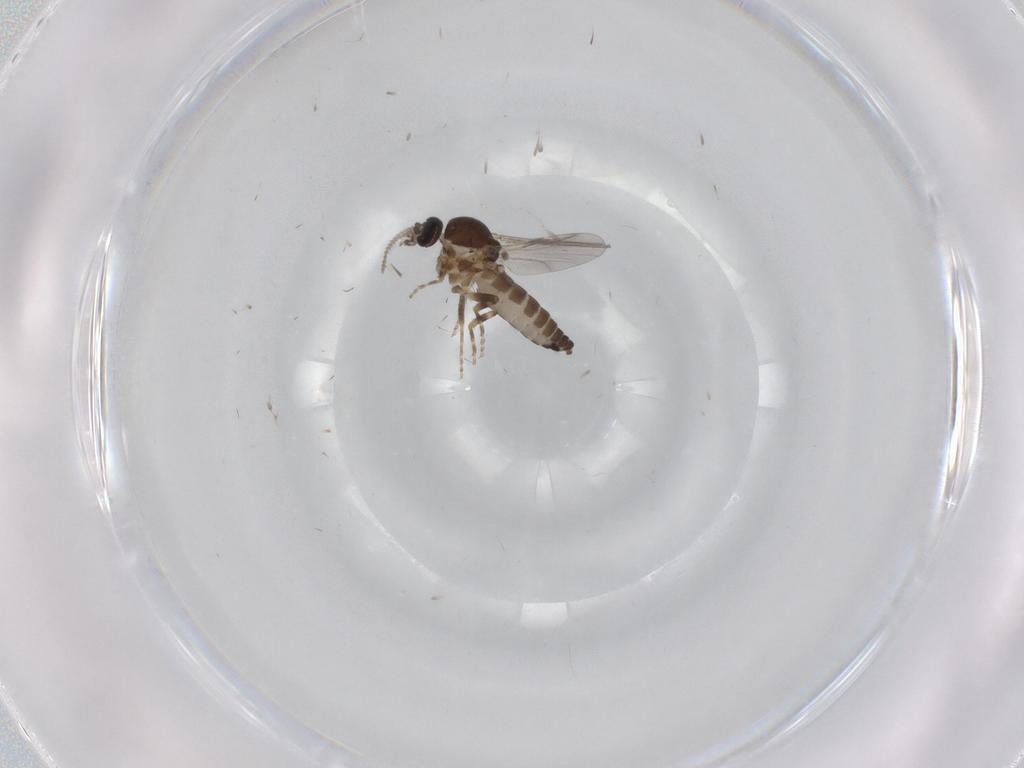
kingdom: Animalia
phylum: Arthropoda
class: Insecta
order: Diptera
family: Ceratopogonidae
